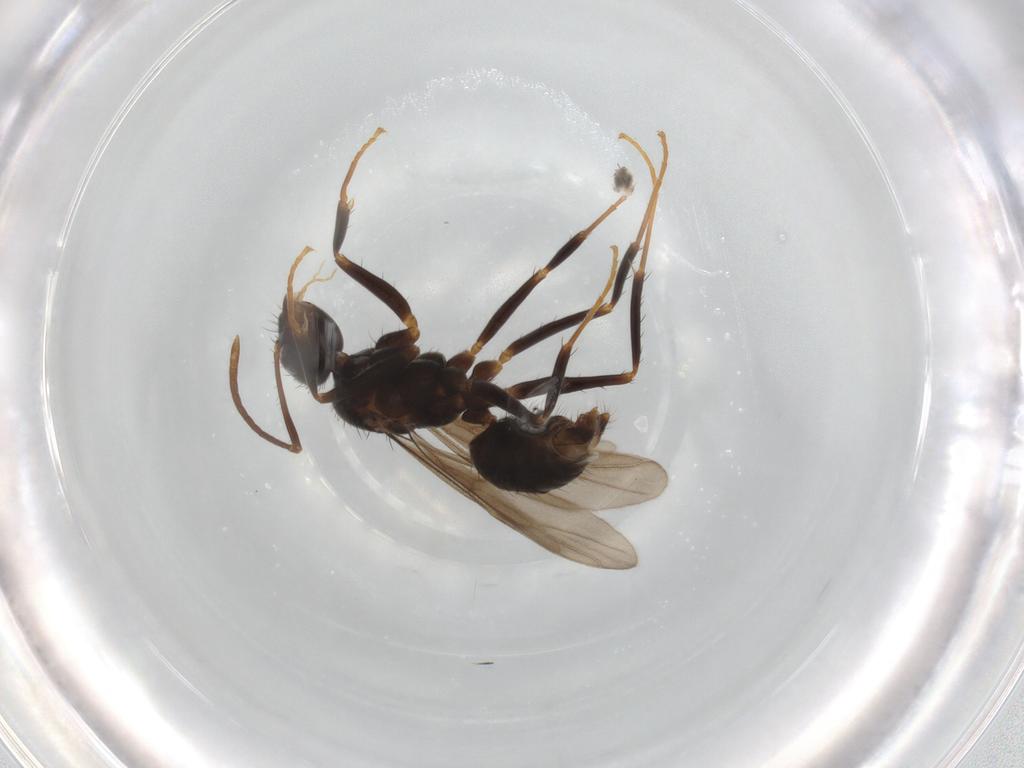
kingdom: Animalia
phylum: Arthropoda
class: Insecta
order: Hymenoptera
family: Formicidae
